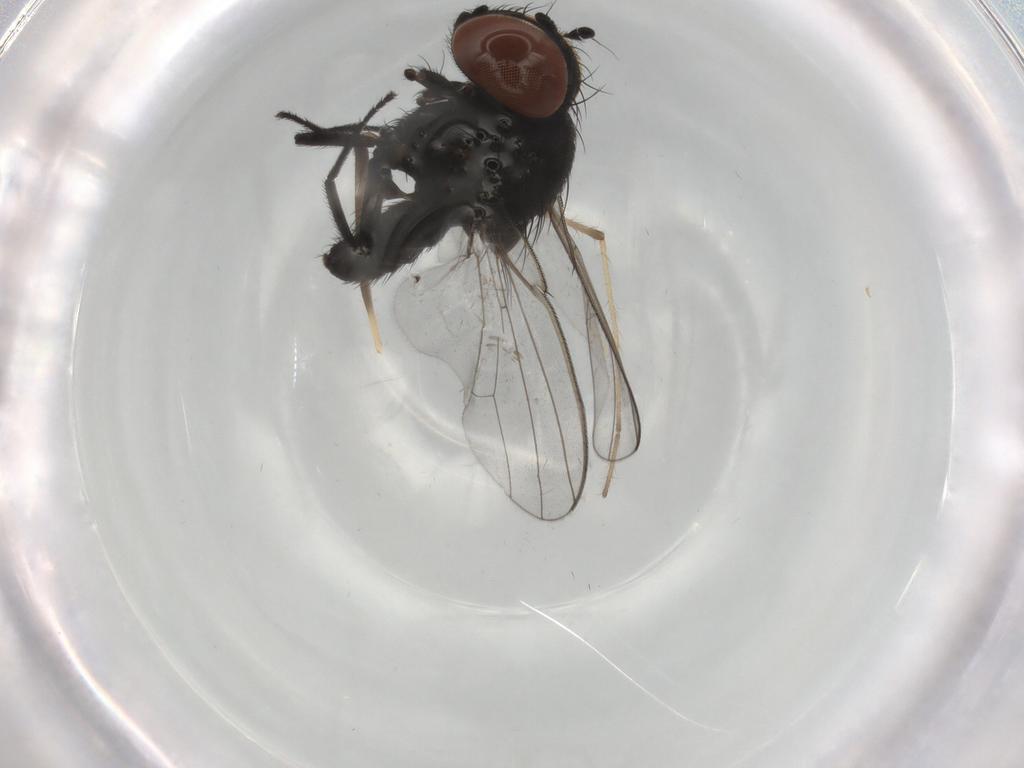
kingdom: Animalia
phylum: Arthropoda
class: Insecta
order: Diptera
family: Milichiidae
